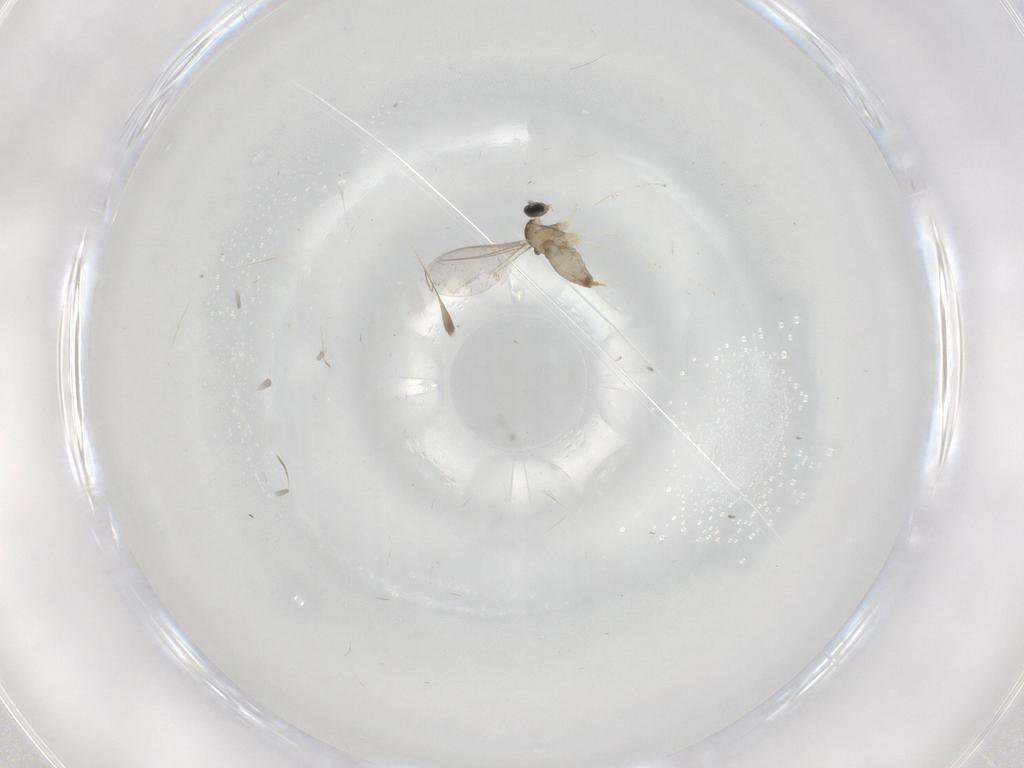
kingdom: Animalia
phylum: Arthropoda
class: Insecta
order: Diptera
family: Cecidomyiidae
